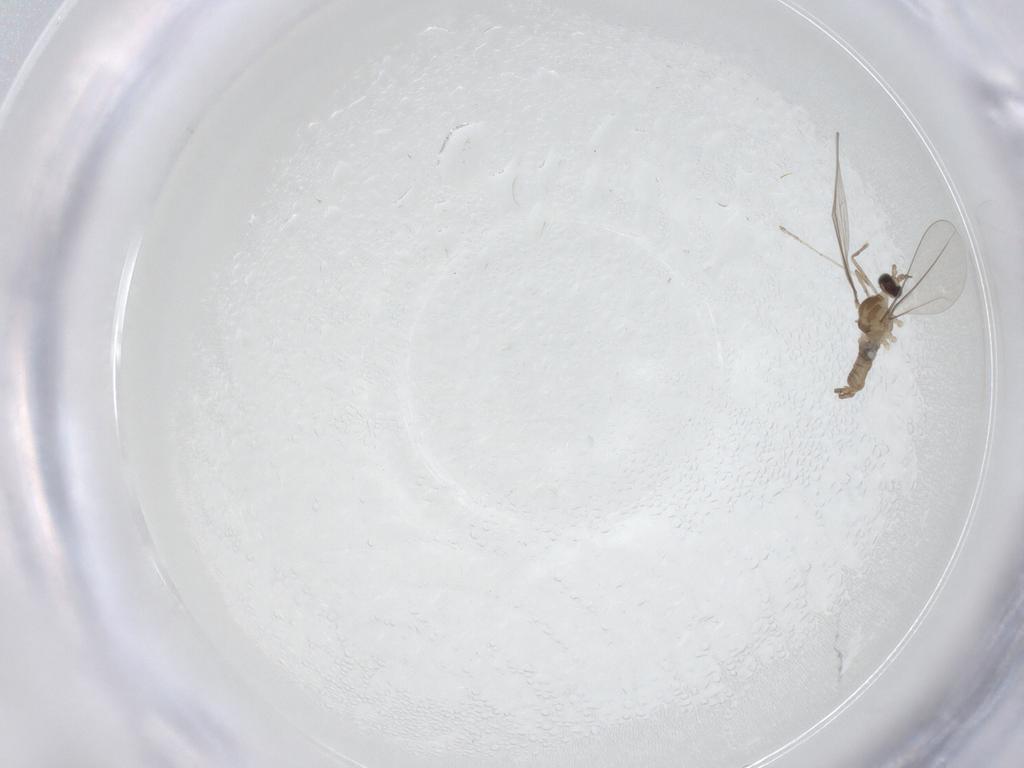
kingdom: Animalia
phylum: Arthropoda
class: Insecta
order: Diptera
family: Cecidomyiidae
